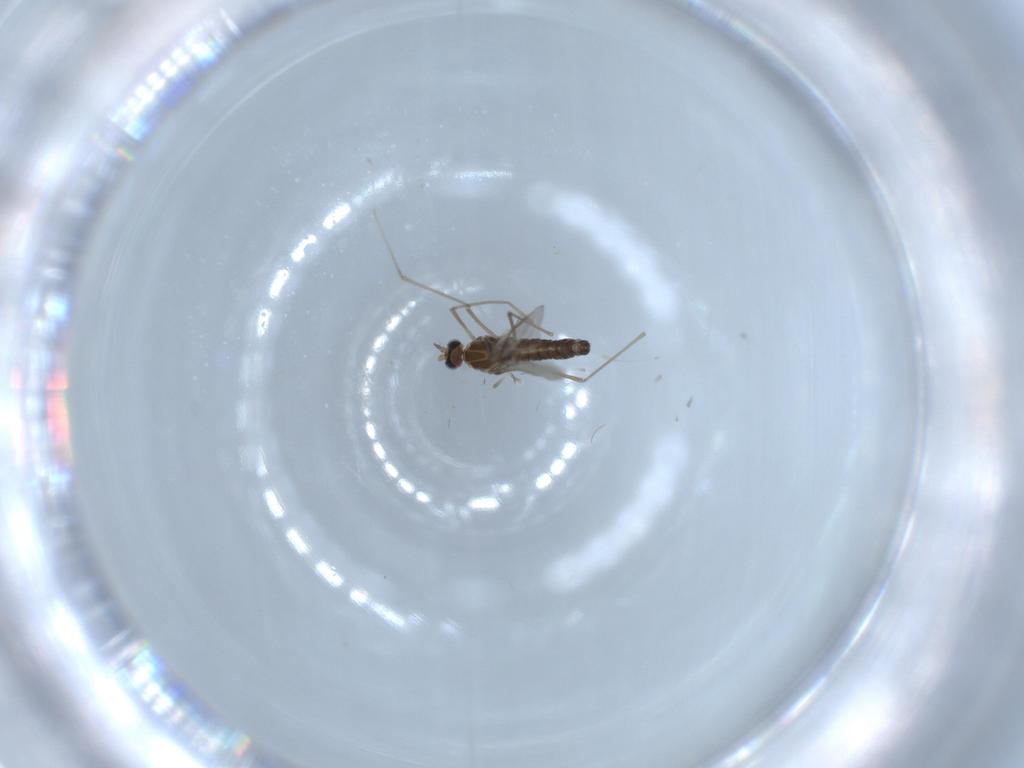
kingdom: Animalia
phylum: Arthropoda
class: Insecta
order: Diptera
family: Cecidomyiidae
